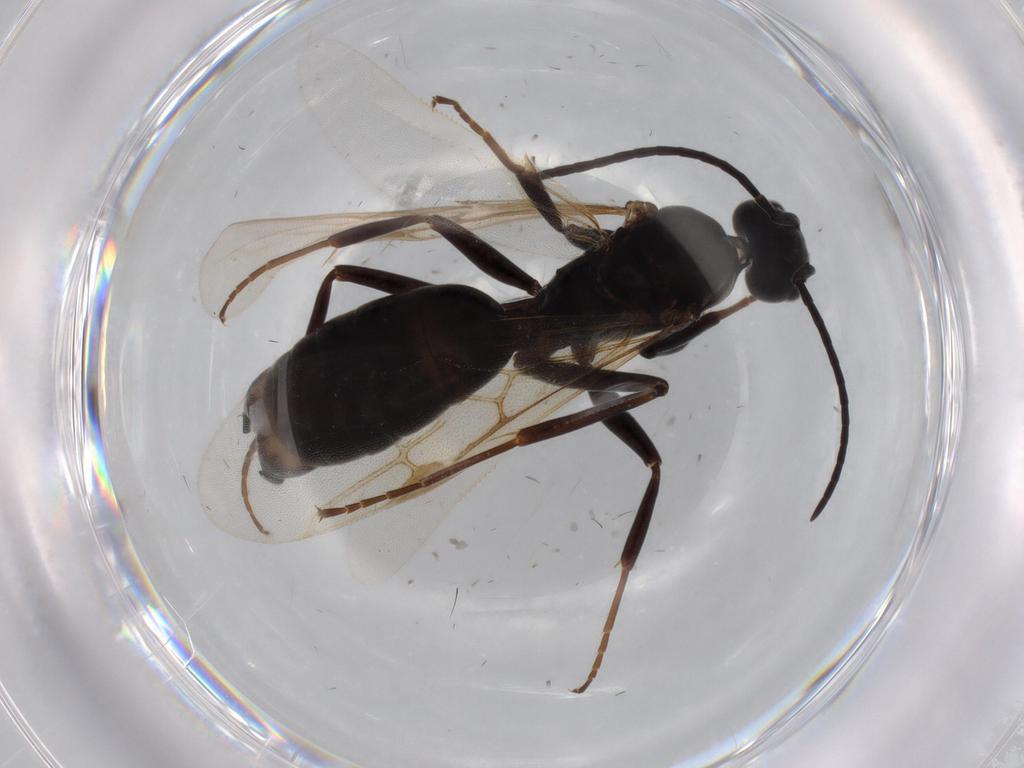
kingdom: Animalia
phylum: Arthropoda
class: Insecta
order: Hymenoptera
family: Formicidae
